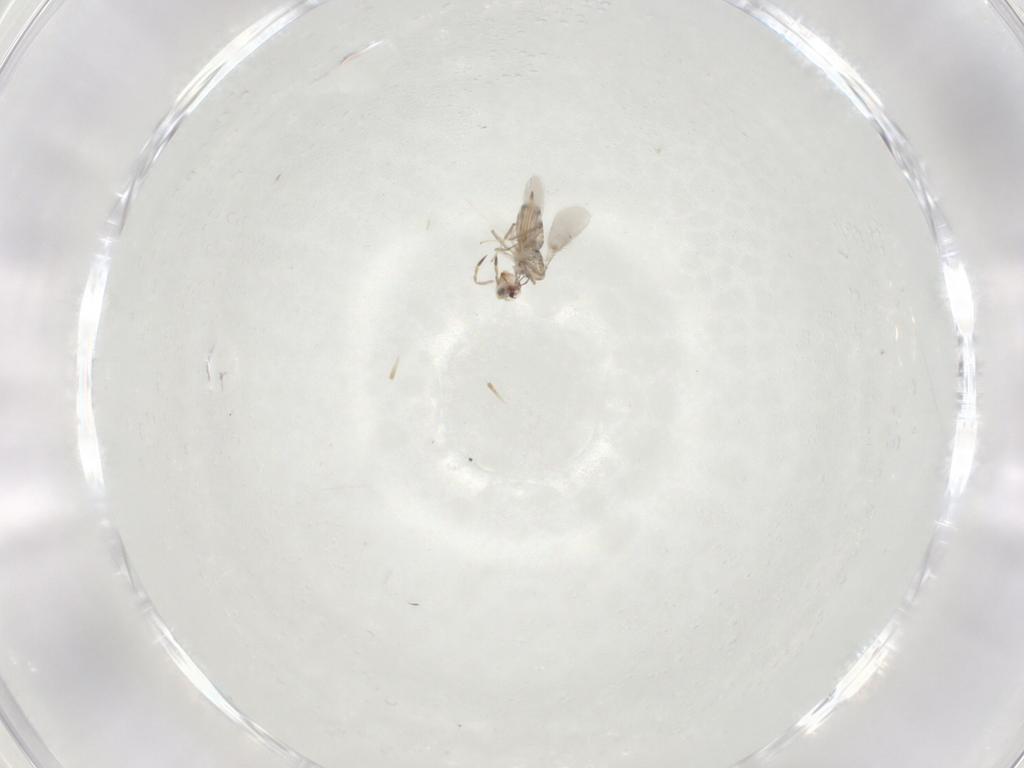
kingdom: Animalia
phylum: Arthropoda
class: Insecta
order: Hymenoptera
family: Aphelinidae
